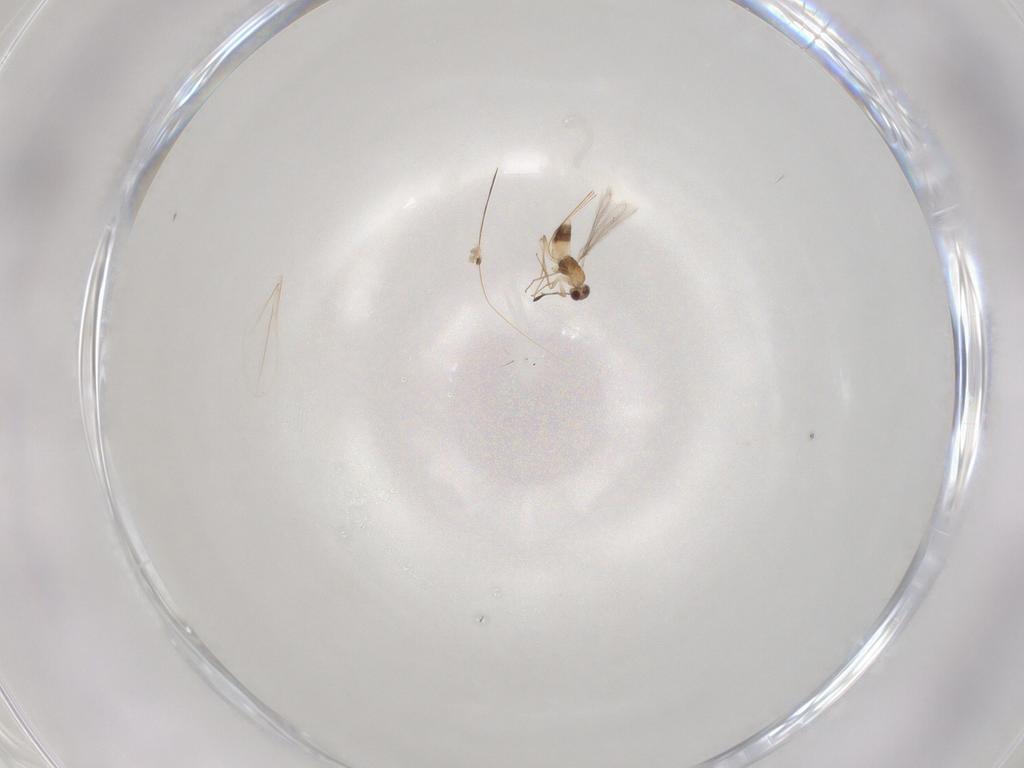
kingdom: Animalia
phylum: Arthropoda
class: Insecta
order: Hymenoptera
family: Mymaridae
